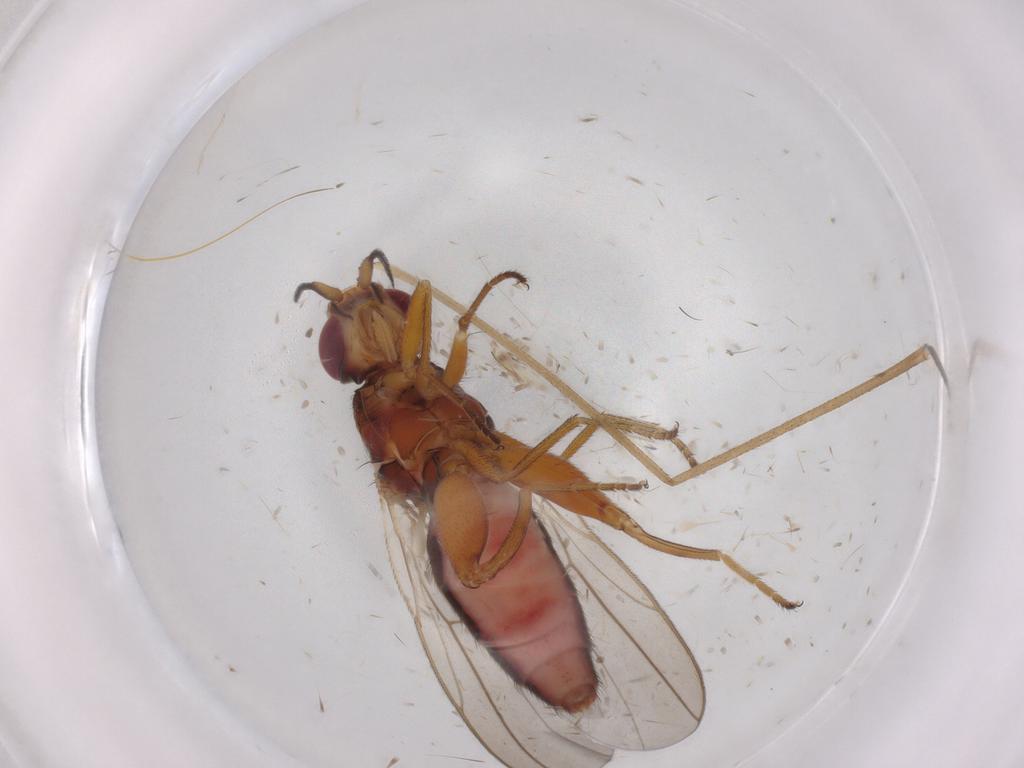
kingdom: Animalia
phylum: Arthropoda
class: Insecta
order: Diptera
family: Chloropidae
